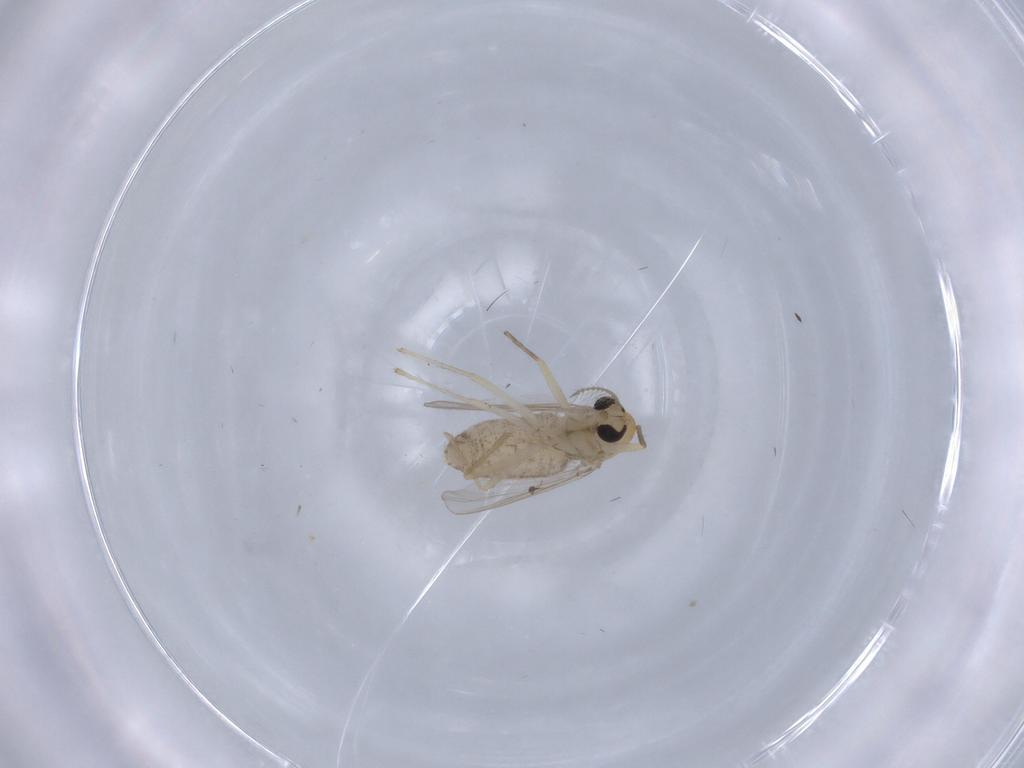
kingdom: Animalia
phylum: Arthropoda
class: Insecta
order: Diptera
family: Chironomidae
